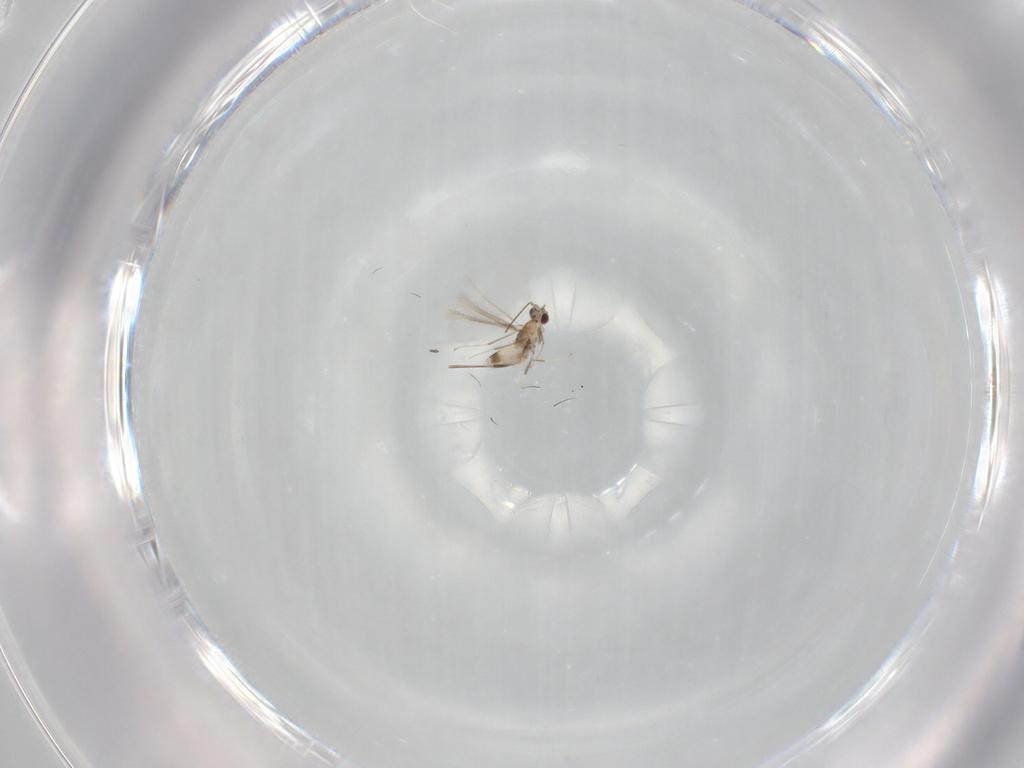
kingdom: Animalia
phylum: Arthropoda
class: Insecta
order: Hymenoptera
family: Mymaridae
